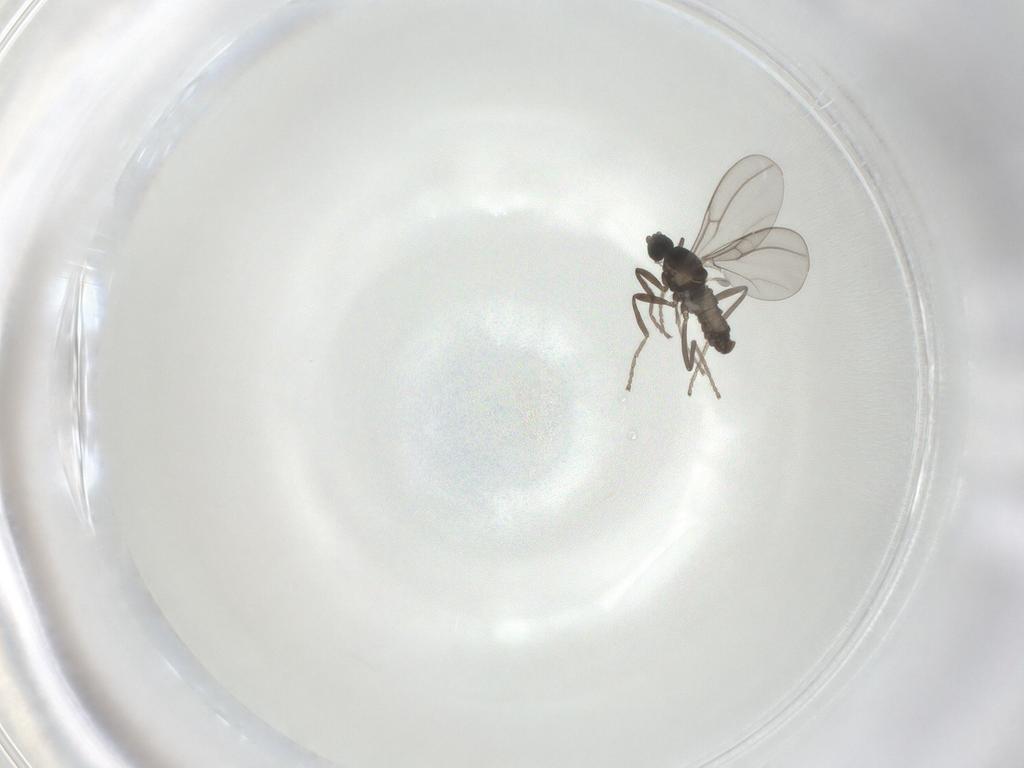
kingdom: Animalia
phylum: Arthropoda
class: Insecta
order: Diptera
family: Cecidomyiidae
